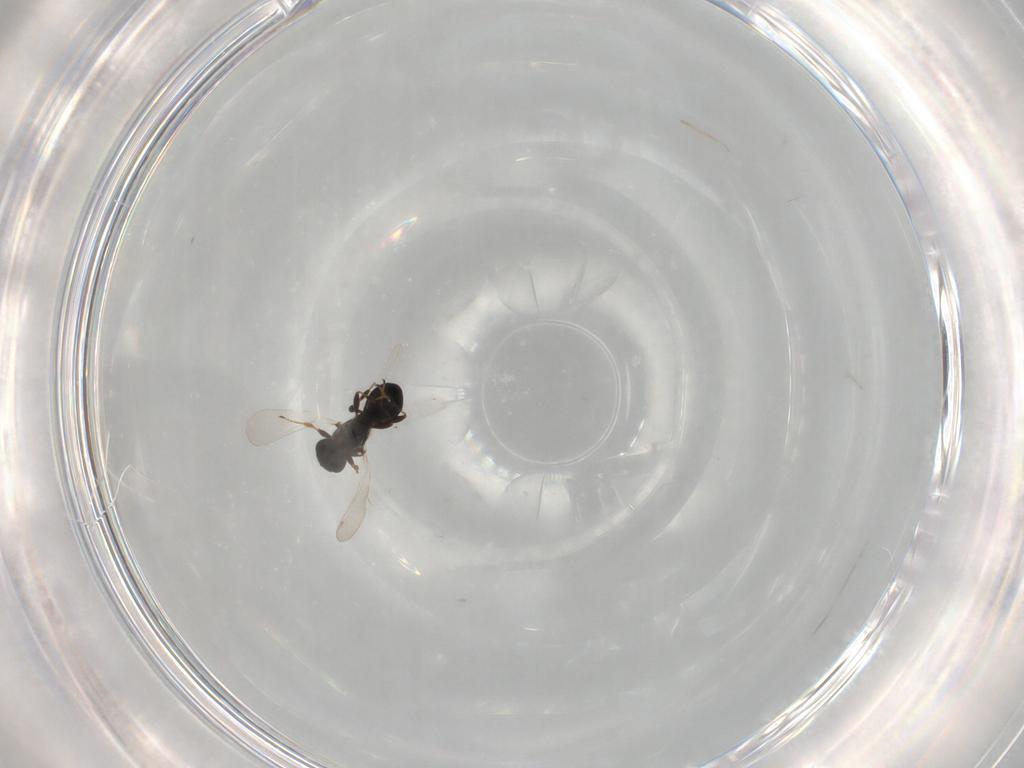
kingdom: Animalia
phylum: Arthropoda
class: Insecta
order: Hymenoptera
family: Platygastridae
